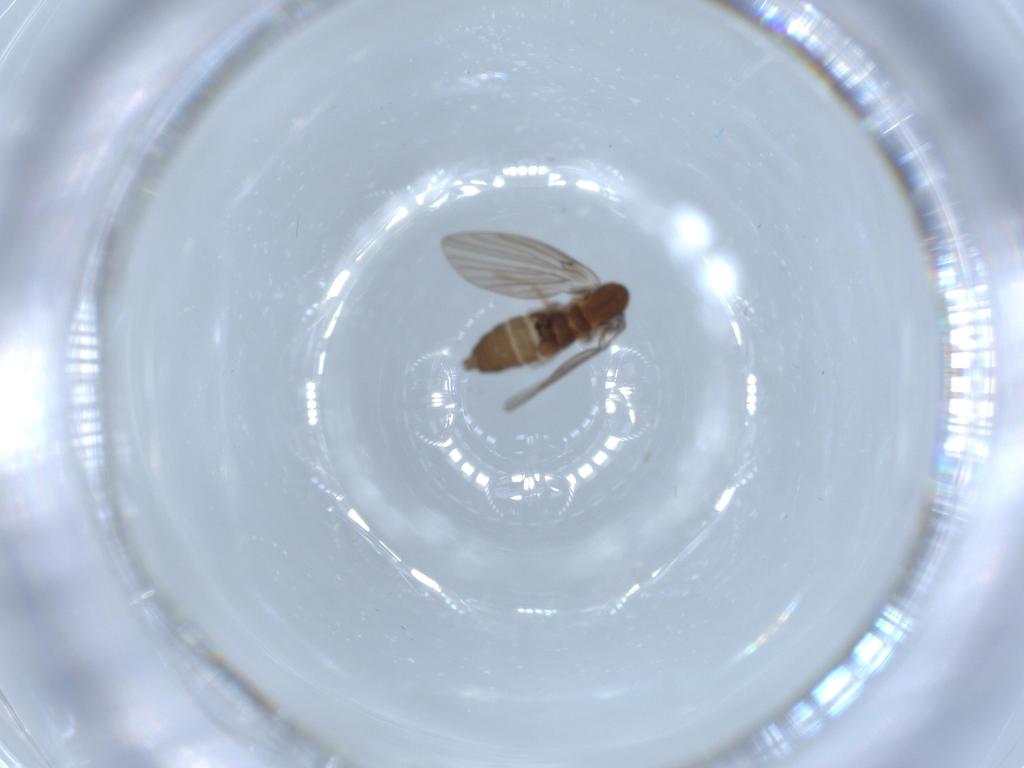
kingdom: Animalia
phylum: Arthropoda
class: Insecta
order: Diptera
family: Psychodidae
